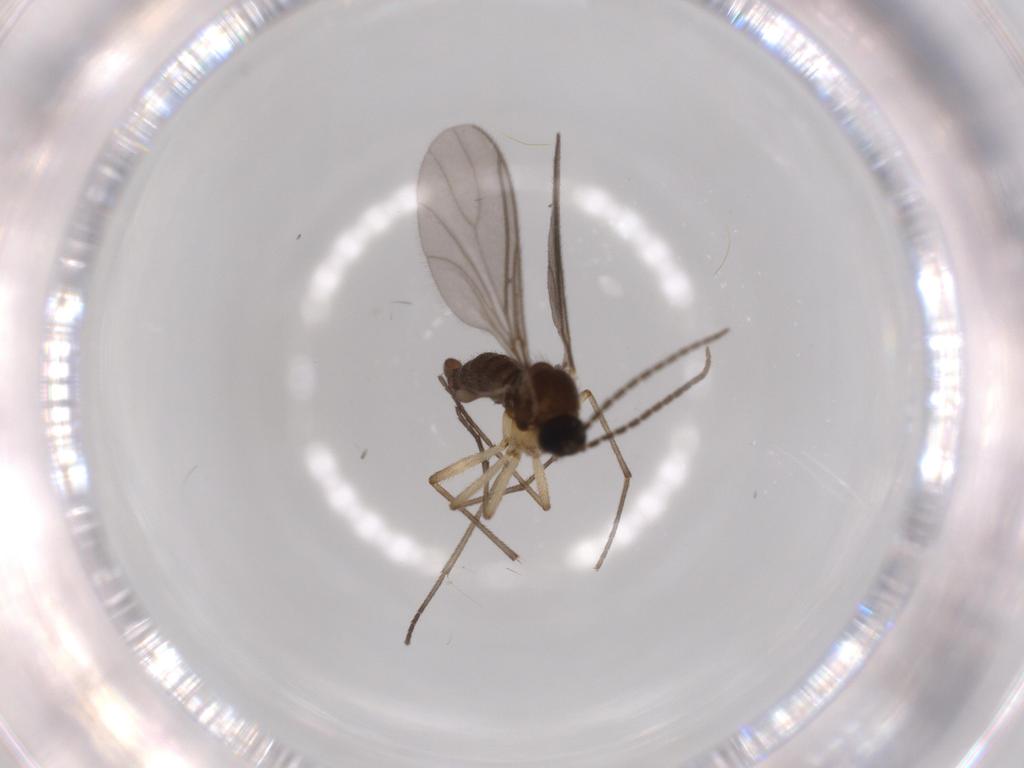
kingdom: Animalia
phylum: Arthropoda
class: Insecta
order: Diptera
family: Sciaridae
